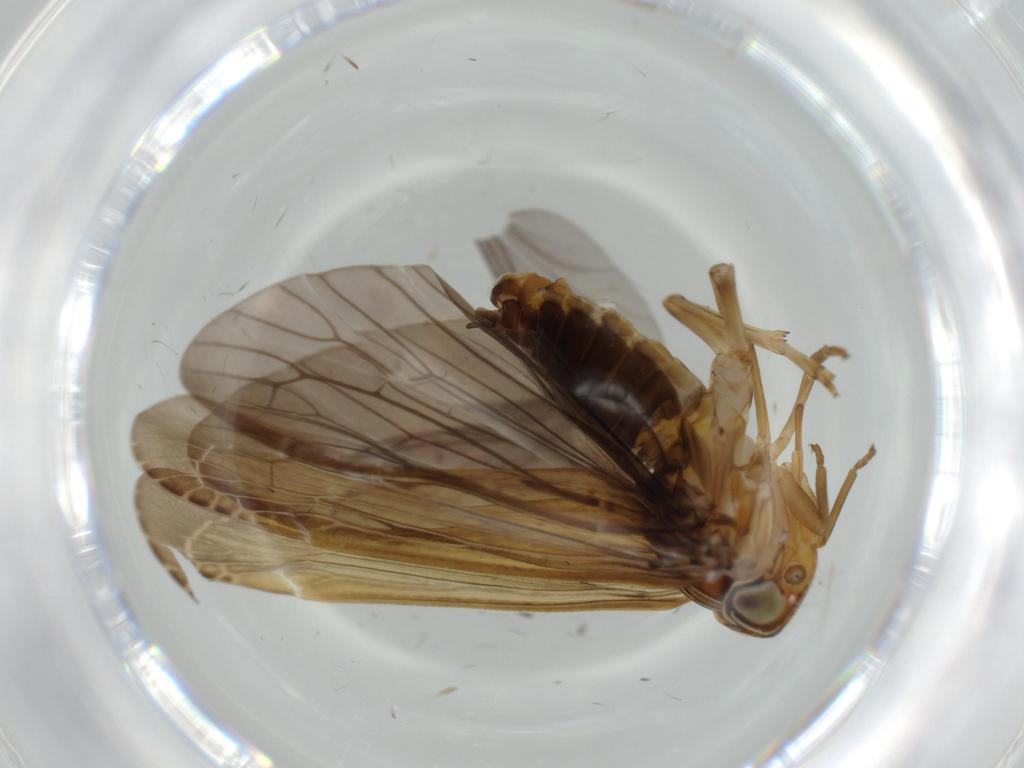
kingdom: Animalia
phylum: Arthropoda
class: Insecta
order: Hemiptera
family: Achilidae
